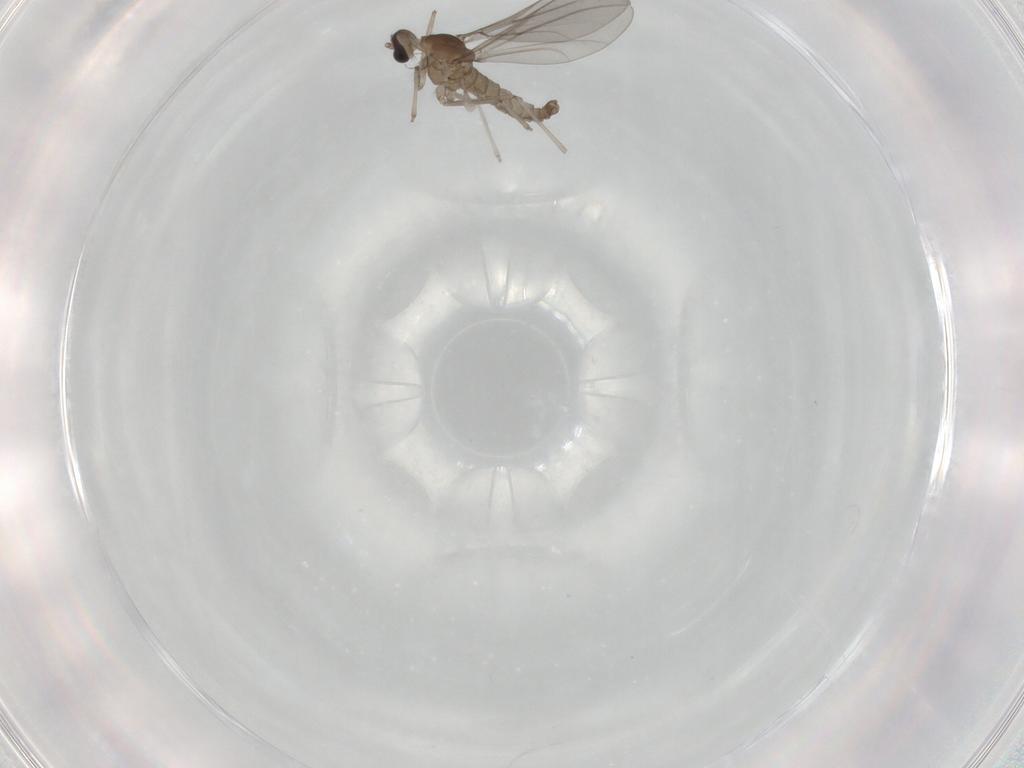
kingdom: Animalia
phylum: Arthropoda
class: Insecta
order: Diptera
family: Cecidomyiidae
